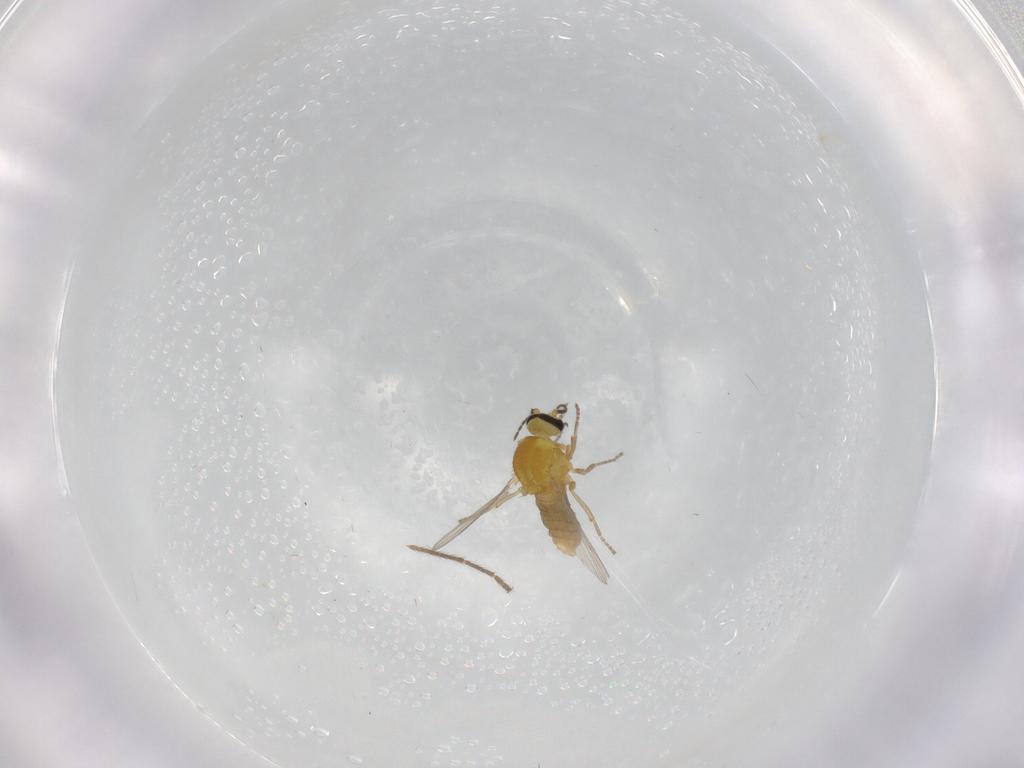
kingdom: Animalia
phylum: Arthropoda
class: Insecta
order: Diptera
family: Limoniidae
